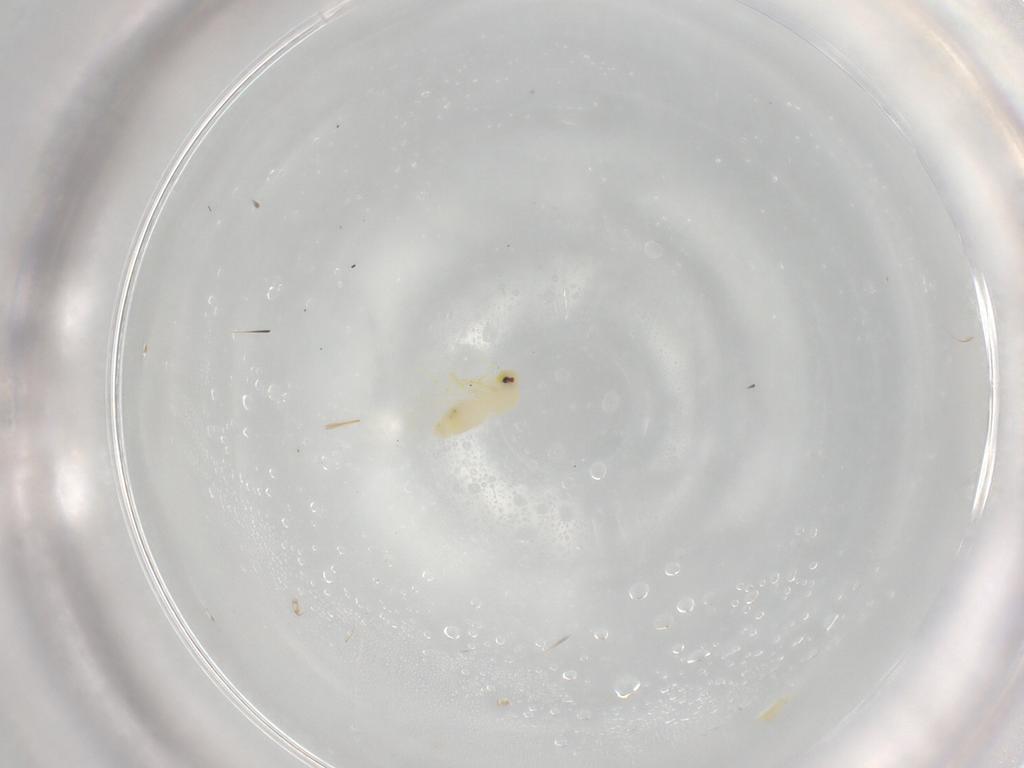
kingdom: Animalia
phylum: Arthropoda
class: Insecta
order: Hemiptera
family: Aleyrodidae
